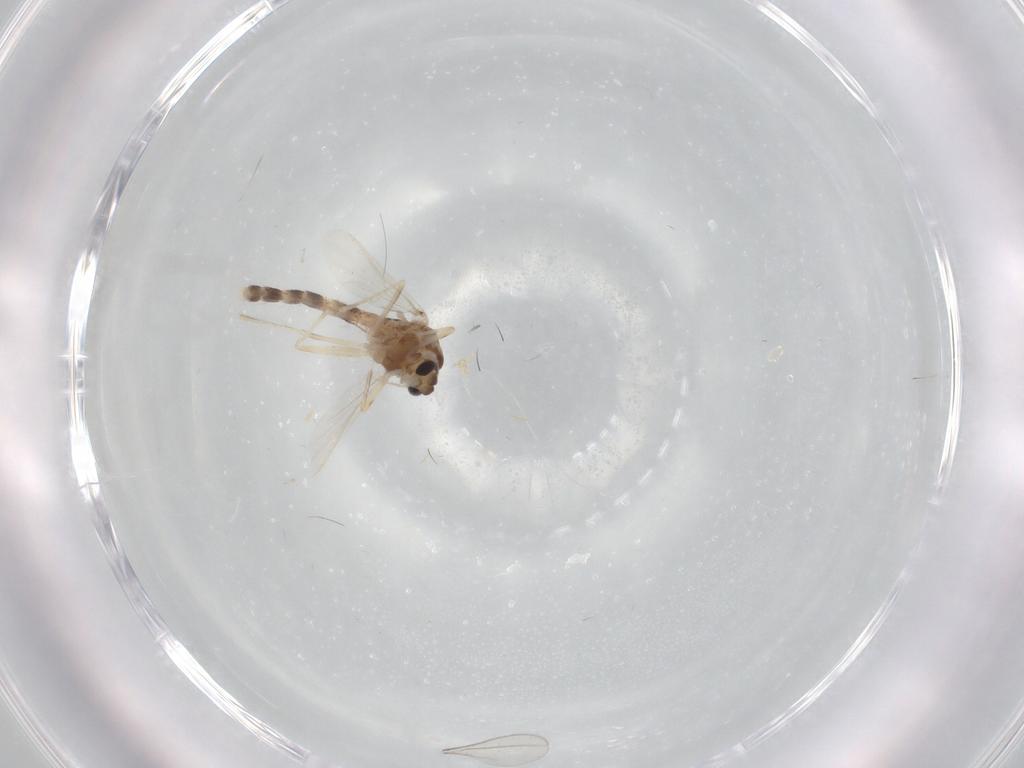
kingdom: Animalia
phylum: Arthropoda
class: Insecta
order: Diptera
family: Chironomidae
